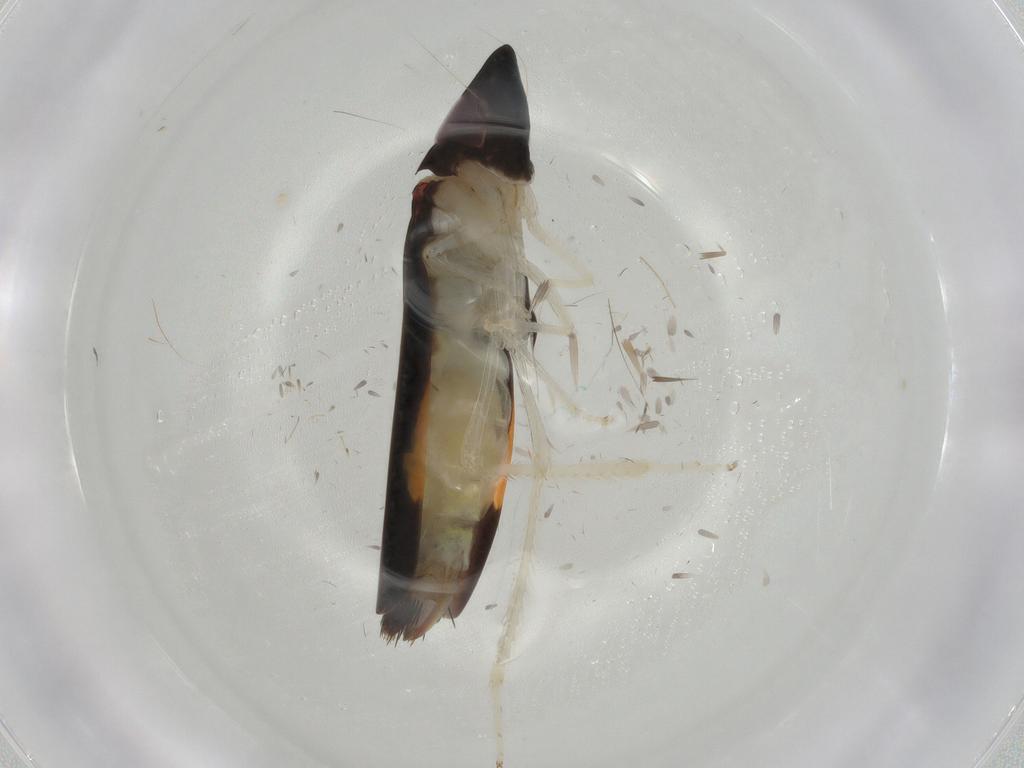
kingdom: Animalia
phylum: Arthropoda
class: Insecta
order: Hemiptera
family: Cicadellidae
